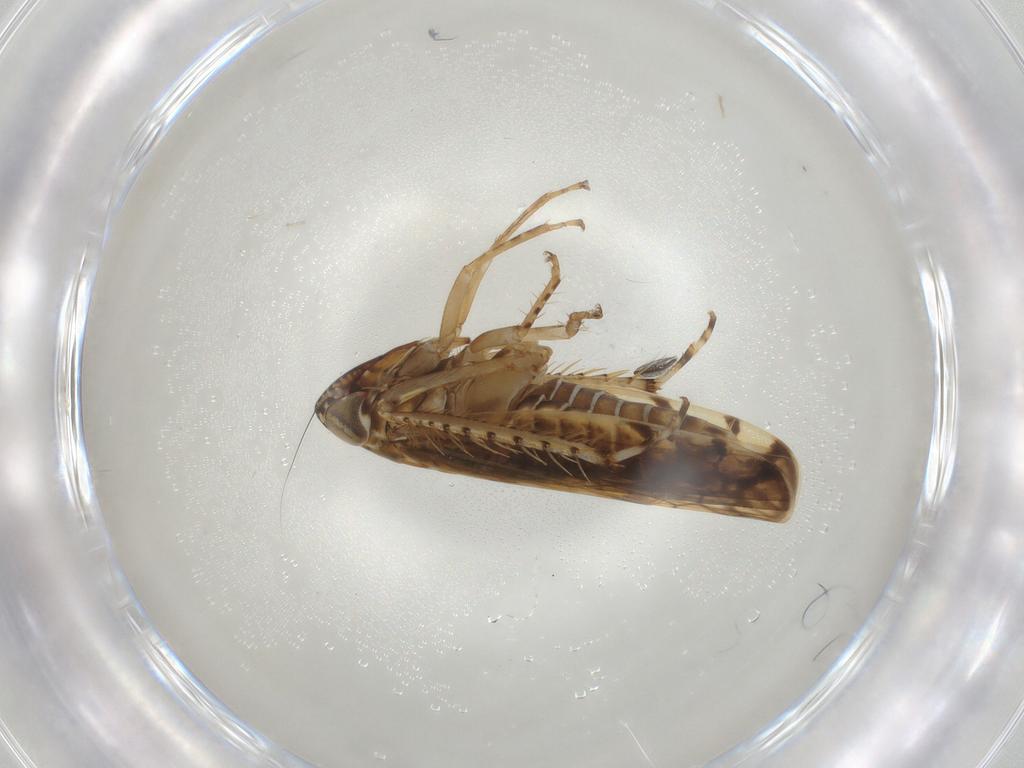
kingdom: Animalia
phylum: Arthropoda
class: Insecta
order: Hemiptera
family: Cicadellidae
